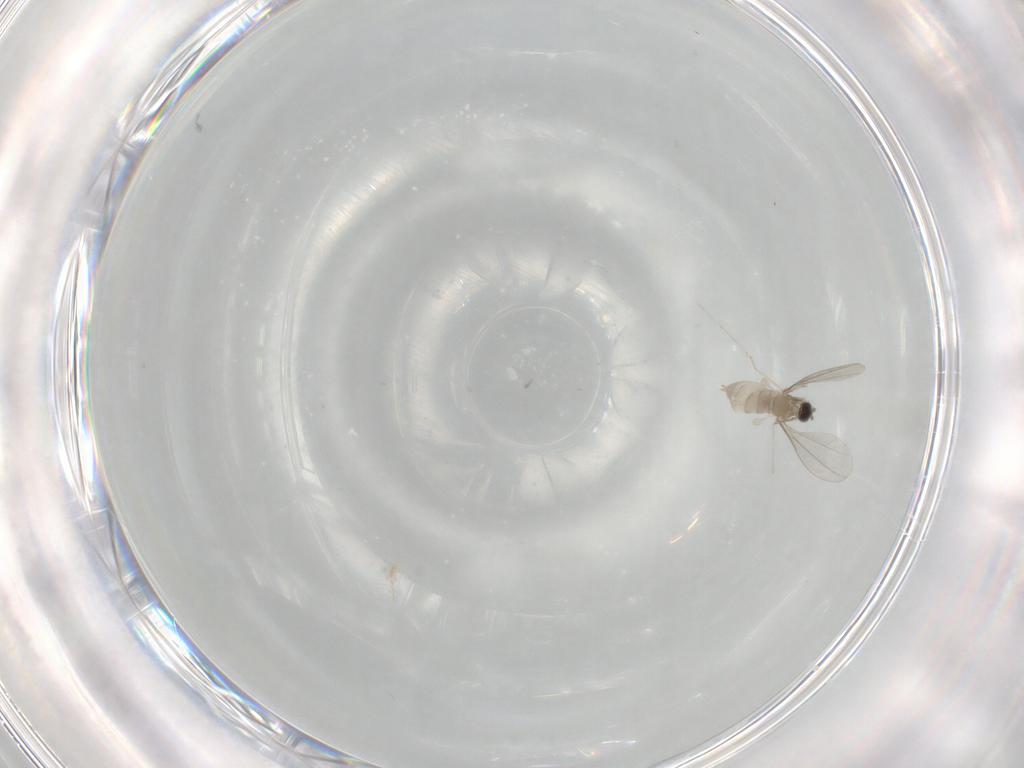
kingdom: Animalia
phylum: Arthropoda
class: Insecta
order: Diptera
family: Cecidomyiidae
